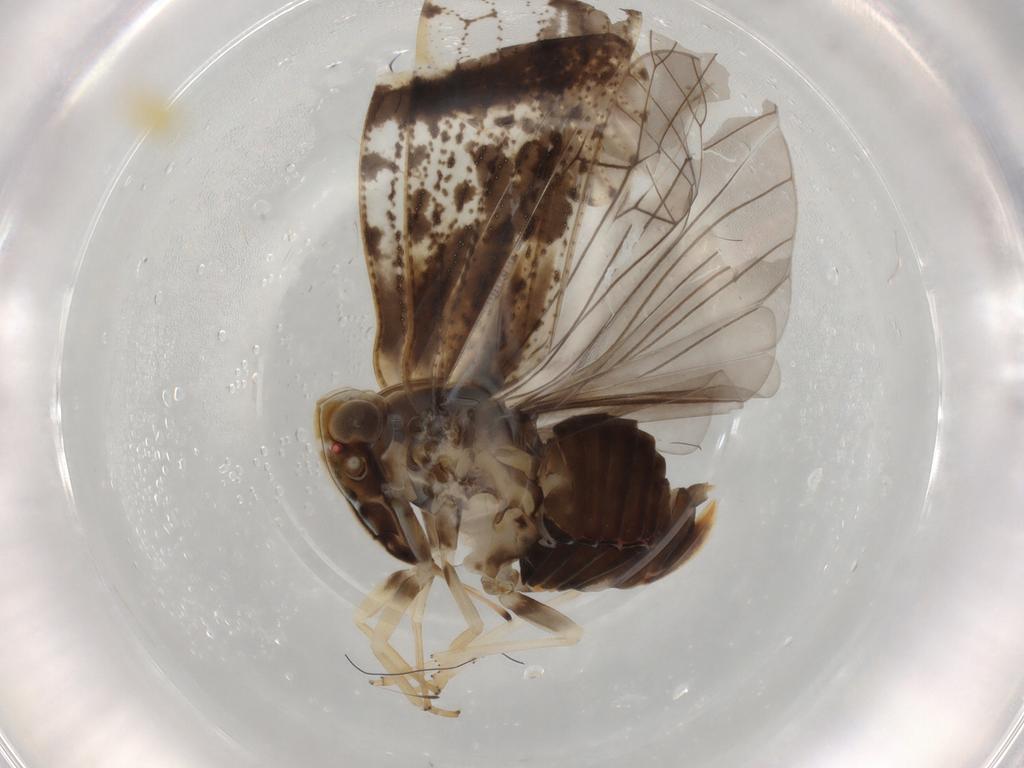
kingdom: Animalia
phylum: Arthropoda
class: Insecta
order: Hemiptera
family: Cixiidae
